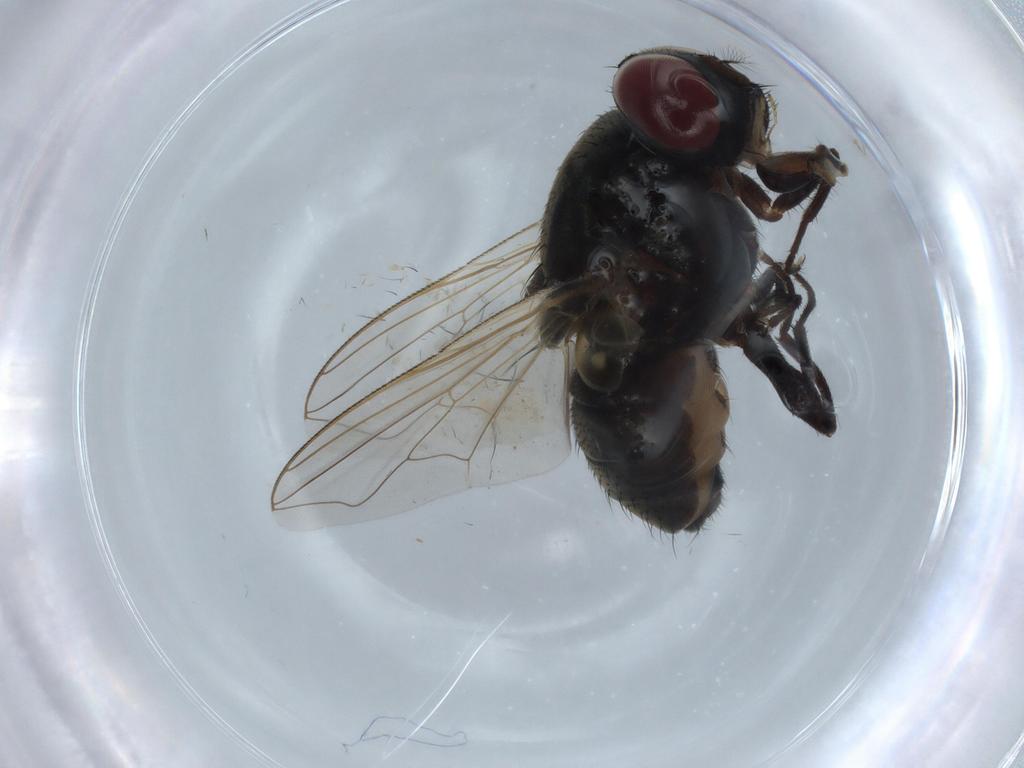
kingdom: Animalia
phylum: Arthropoda
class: Insecta
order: Diptera
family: Cecidomyiidae
